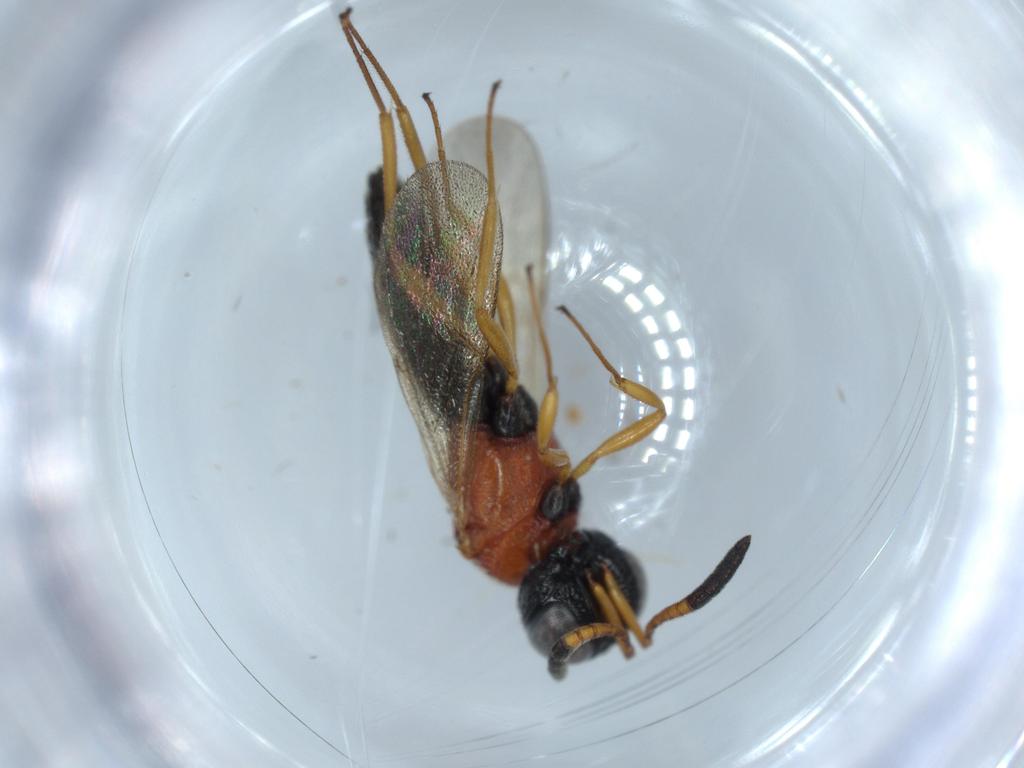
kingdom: Animalia
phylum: Arthropoda
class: Insecta
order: Hymenoptera
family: Scelionidae
